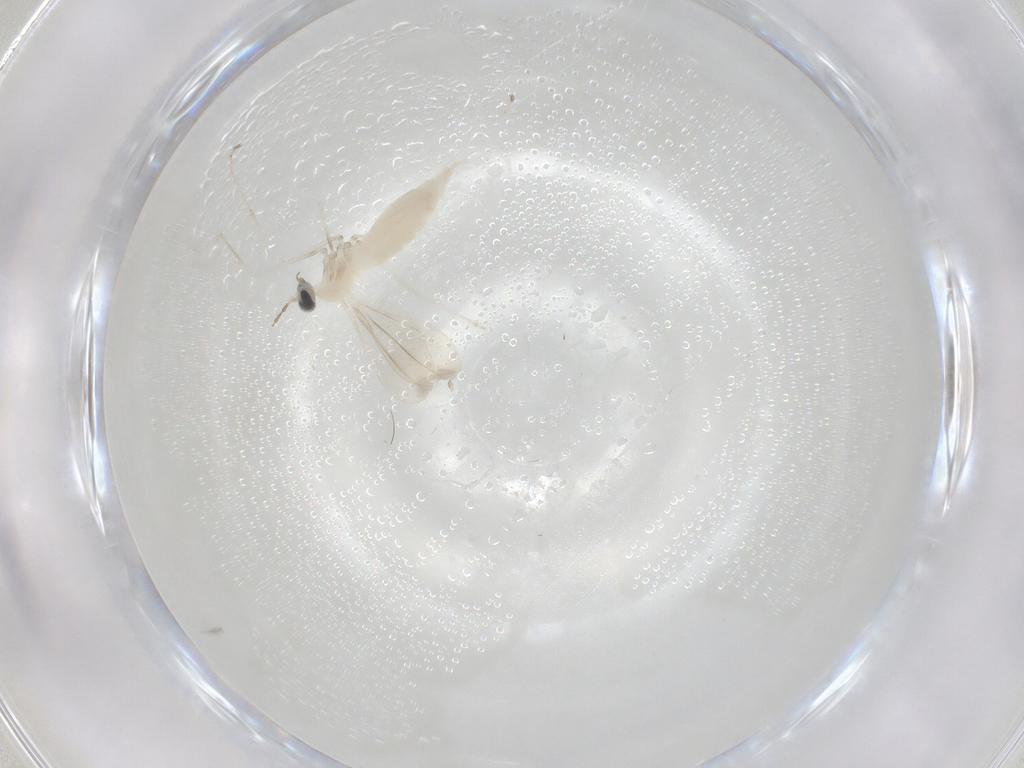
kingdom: Animalia
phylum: Arthropoda
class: Insecta
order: Diptera
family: Cecidomyiidae
